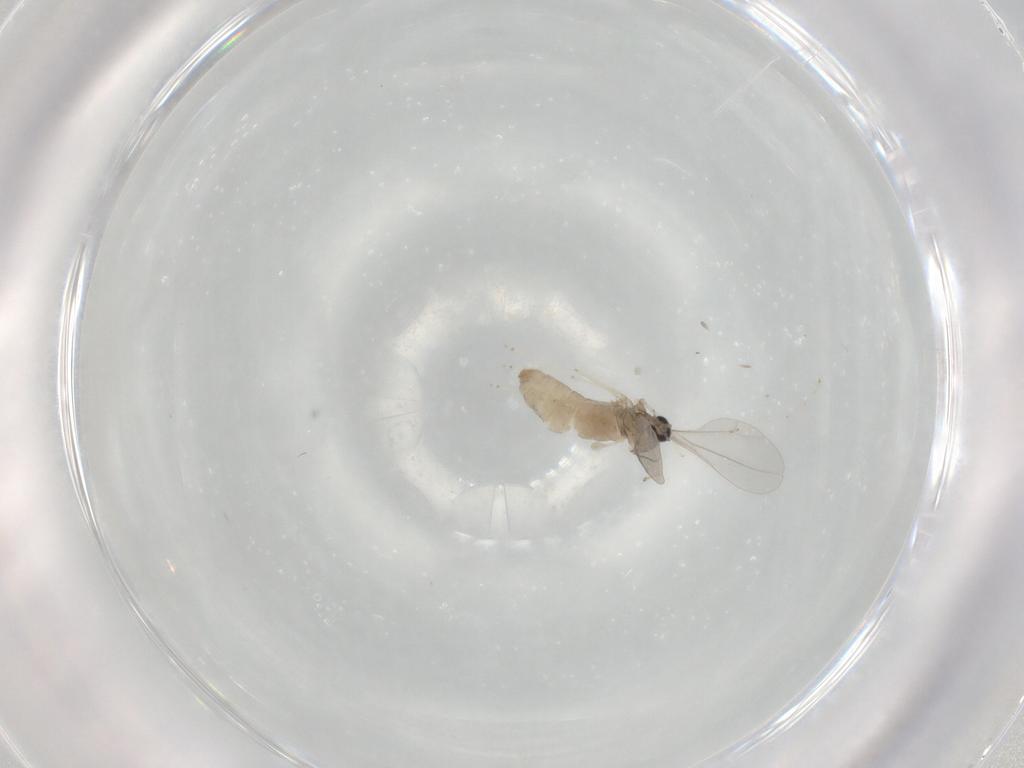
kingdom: Animalia
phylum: Arthropoda
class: Insecta
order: Diptera
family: Cecidomyiidae
